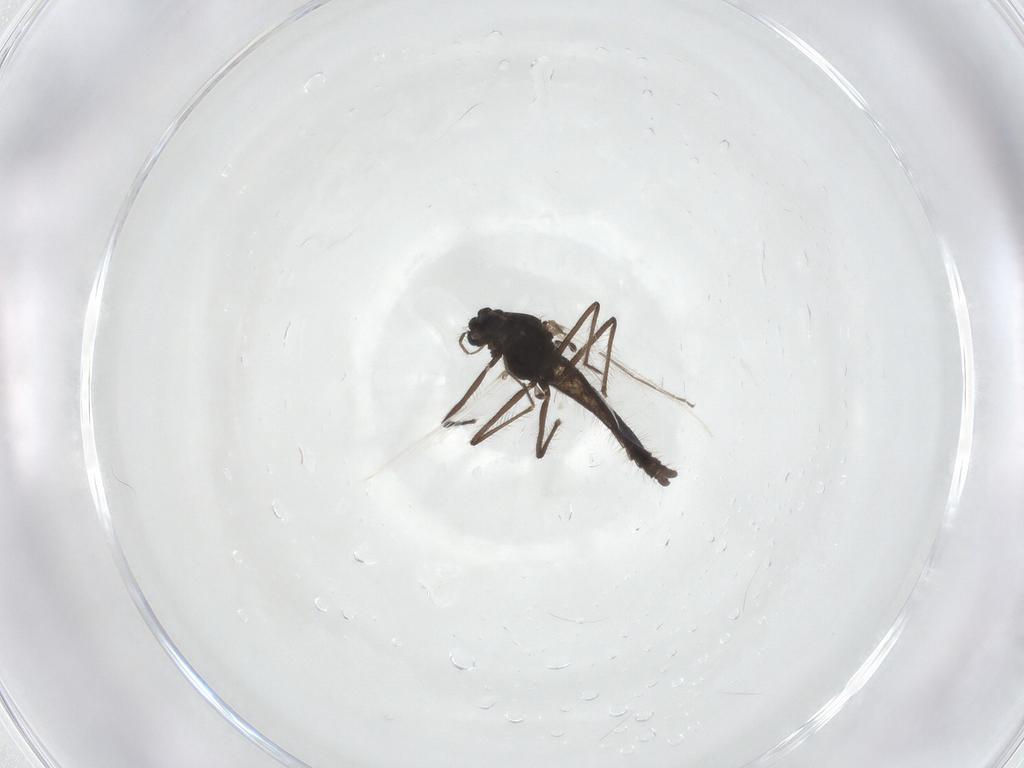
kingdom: Animalia
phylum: Arthropoda
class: Insecta
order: Diptera
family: Chironomidae
